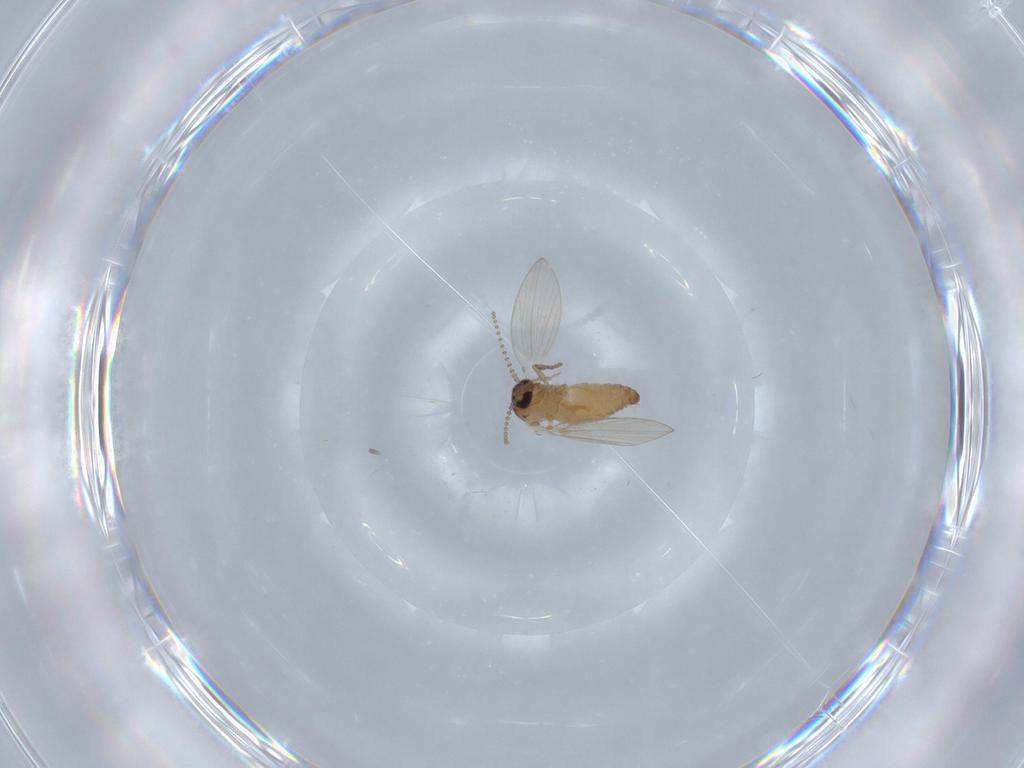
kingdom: Animalia
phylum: Arthropoda
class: Insecta
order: Diptera
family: Psychodidae
